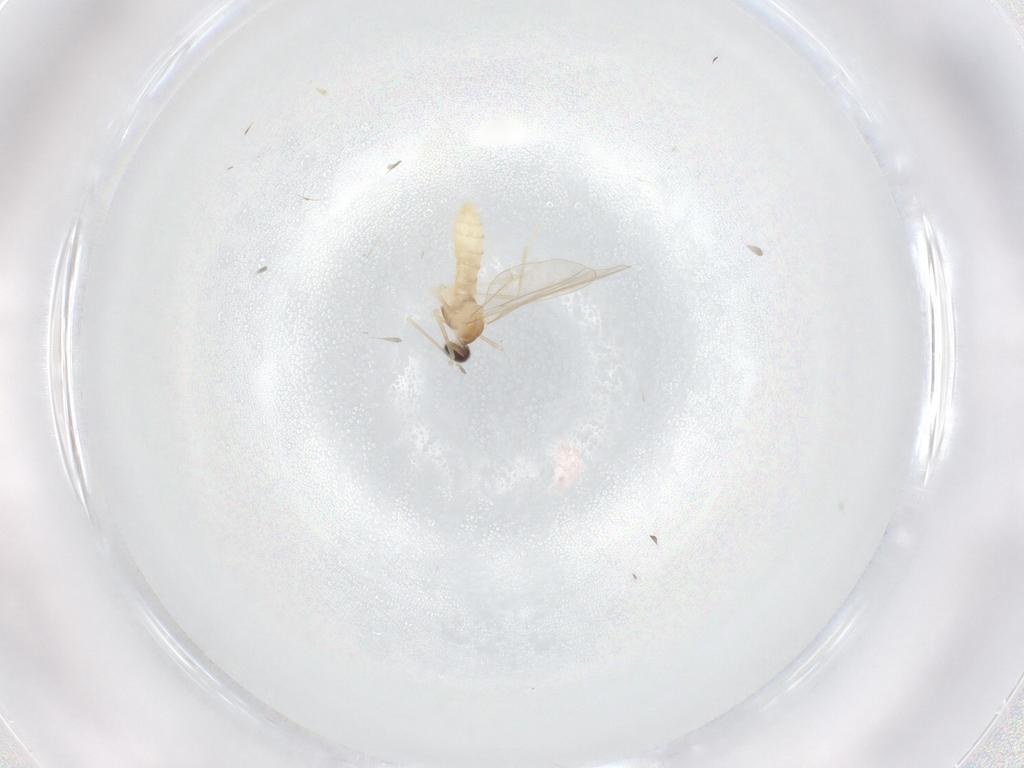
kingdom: Animalia
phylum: Arthropoda
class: Insecta
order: Diptera
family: Cecidomyiidae
